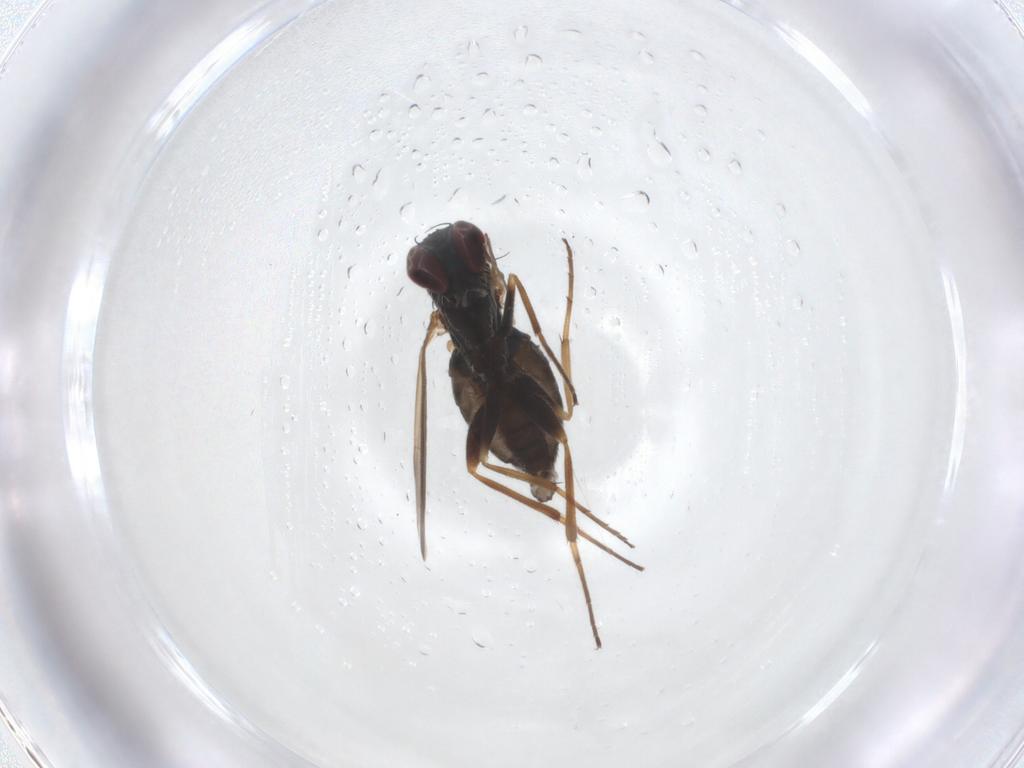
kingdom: Animalia
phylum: Arthropoda
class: Insecta
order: Diptera
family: Dolichopodidae
